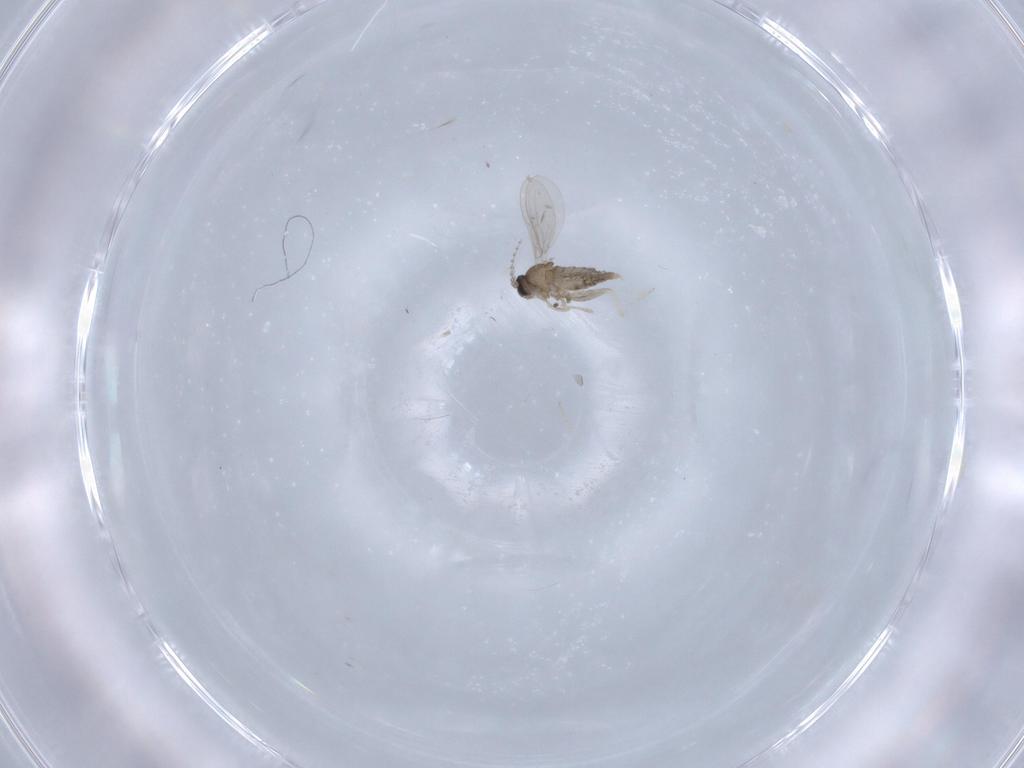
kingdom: Animalia
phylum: Arthropoda
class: Insecta
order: Diptera
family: Cecidomyiidae
